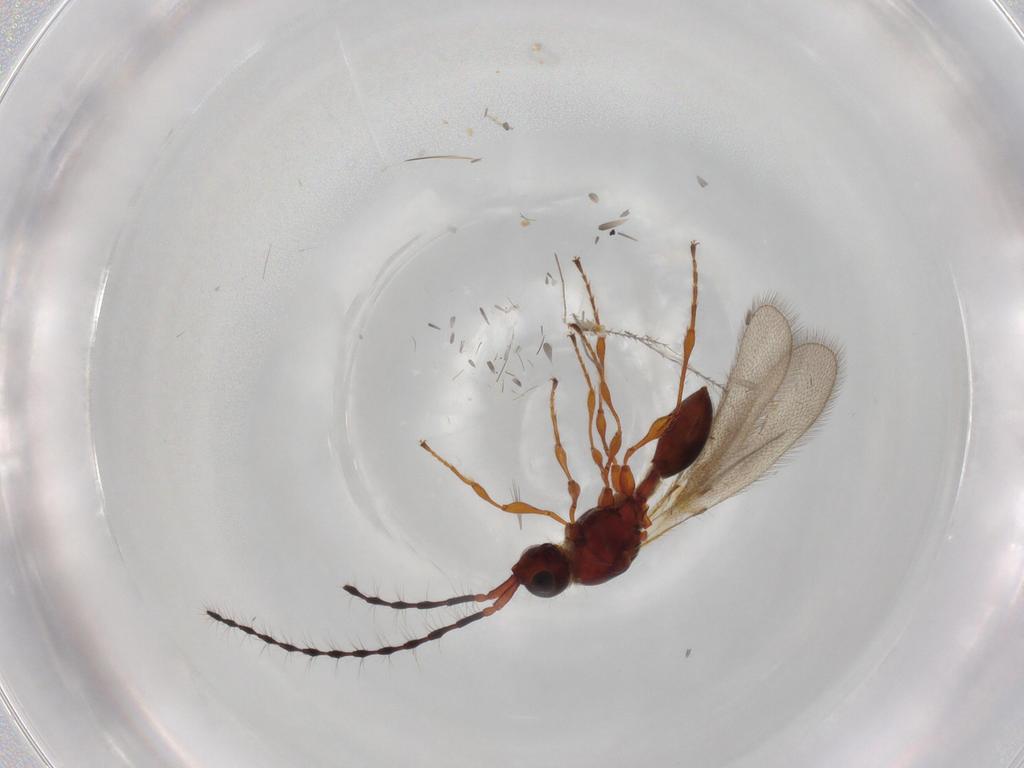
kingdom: Animalia
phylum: Arthropoda
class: Insecta
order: Hymenoptera
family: Diapriidae
